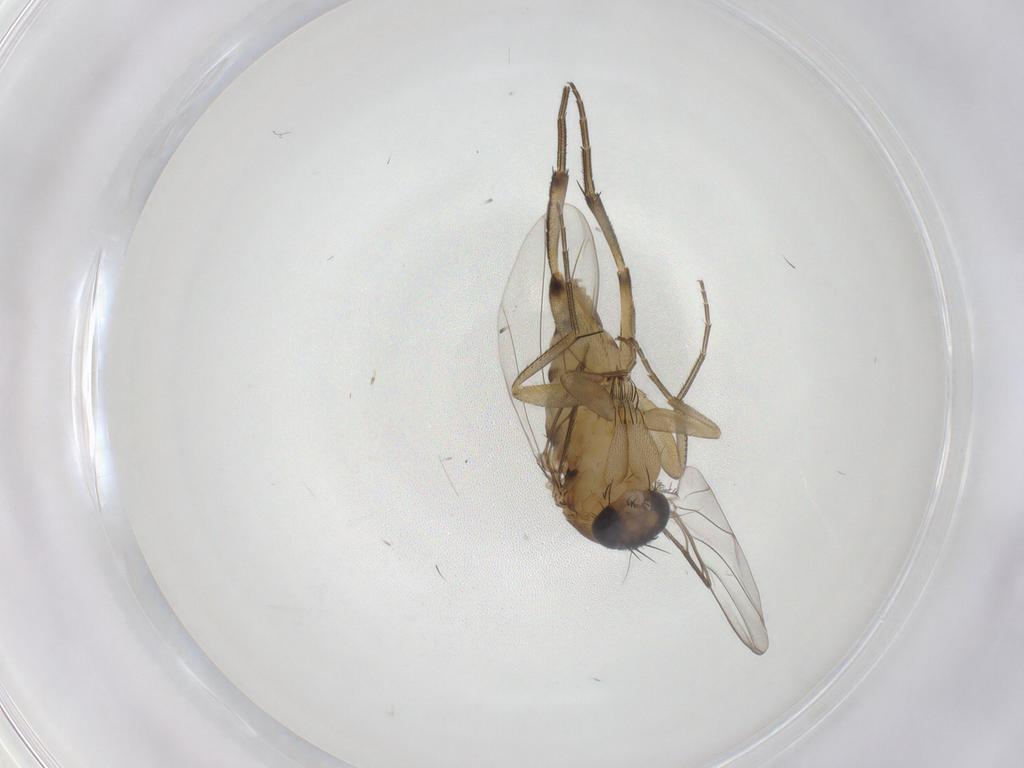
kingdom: Animalia
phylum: Arthropoda
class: Insecta
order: Diptera
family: Phoridae
